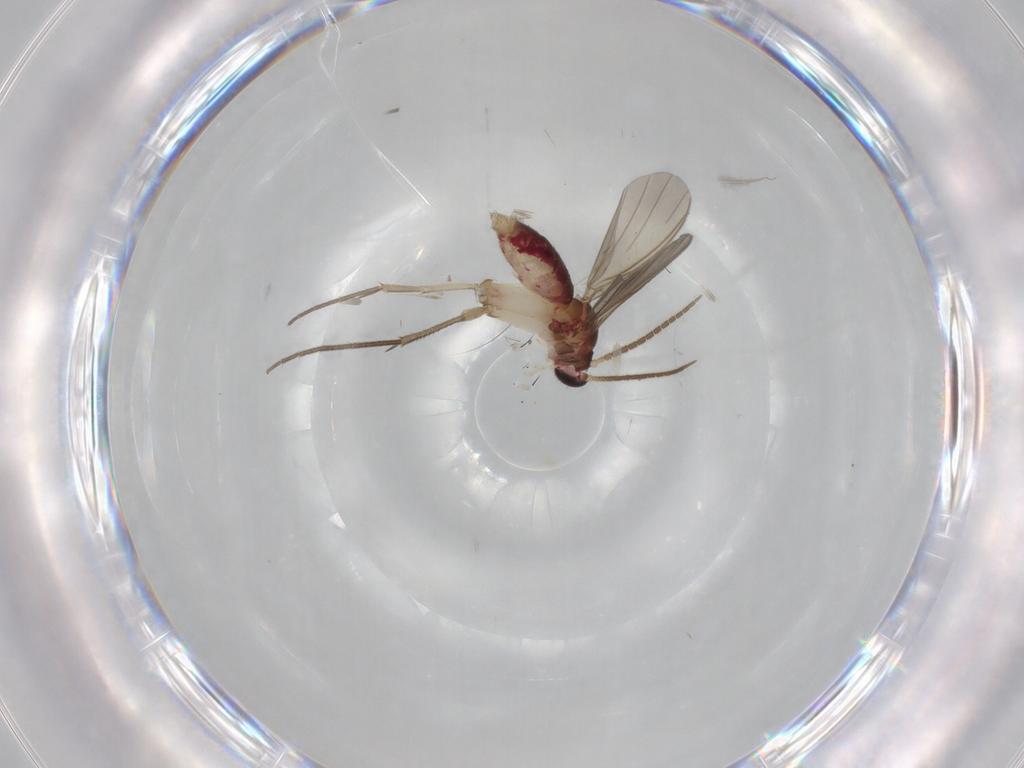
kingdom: Animalia
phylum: Arthropoda
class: Insecta
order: Diptera
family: Mycetophilidae
